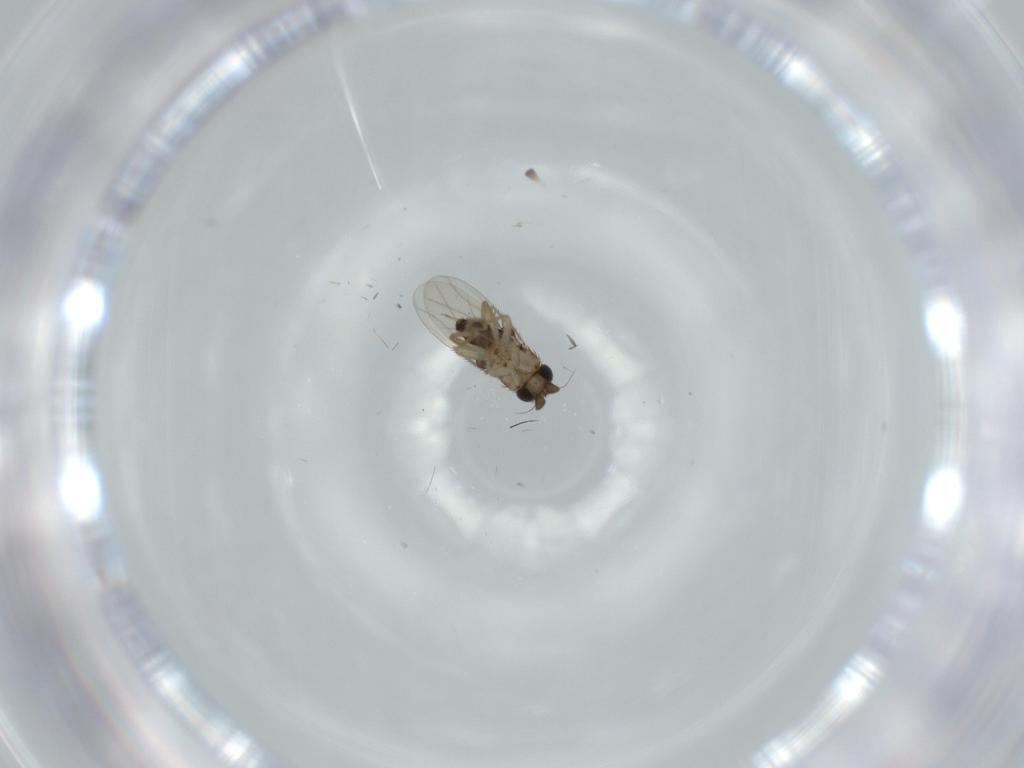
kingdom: Animalia
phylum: Arthropoda
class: Insecta
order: Diptera
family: Phoridae
